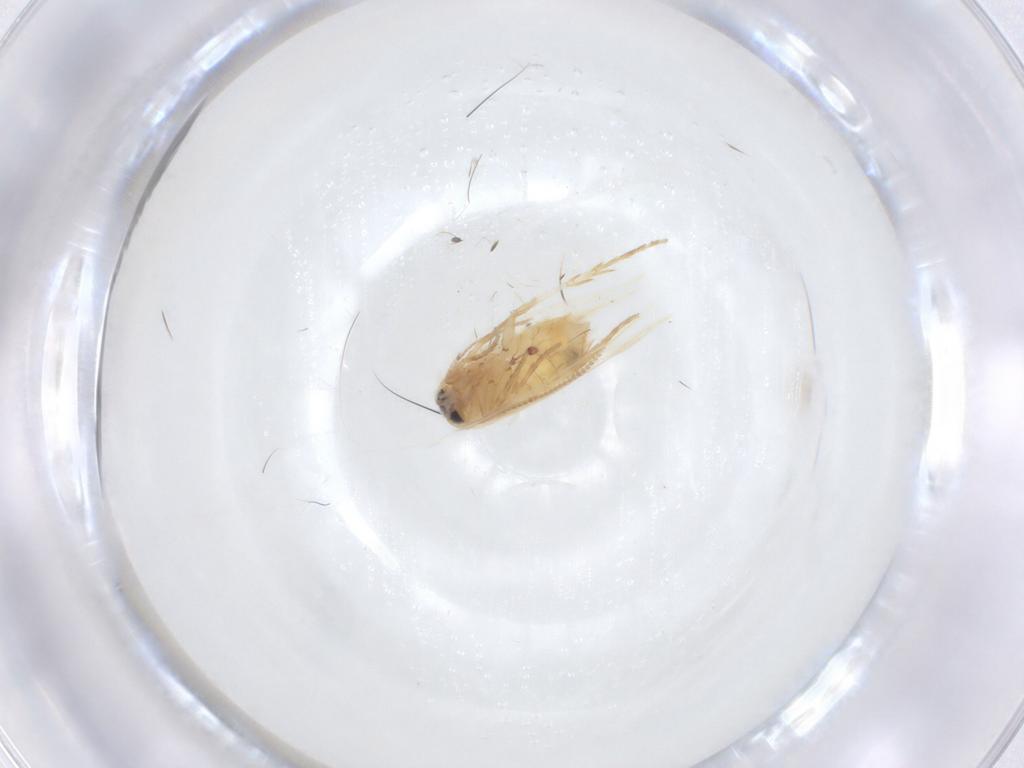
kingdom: Animalia
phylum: Arthropoda
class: Insecta
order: Lepidoptera
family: Nepticulidae
